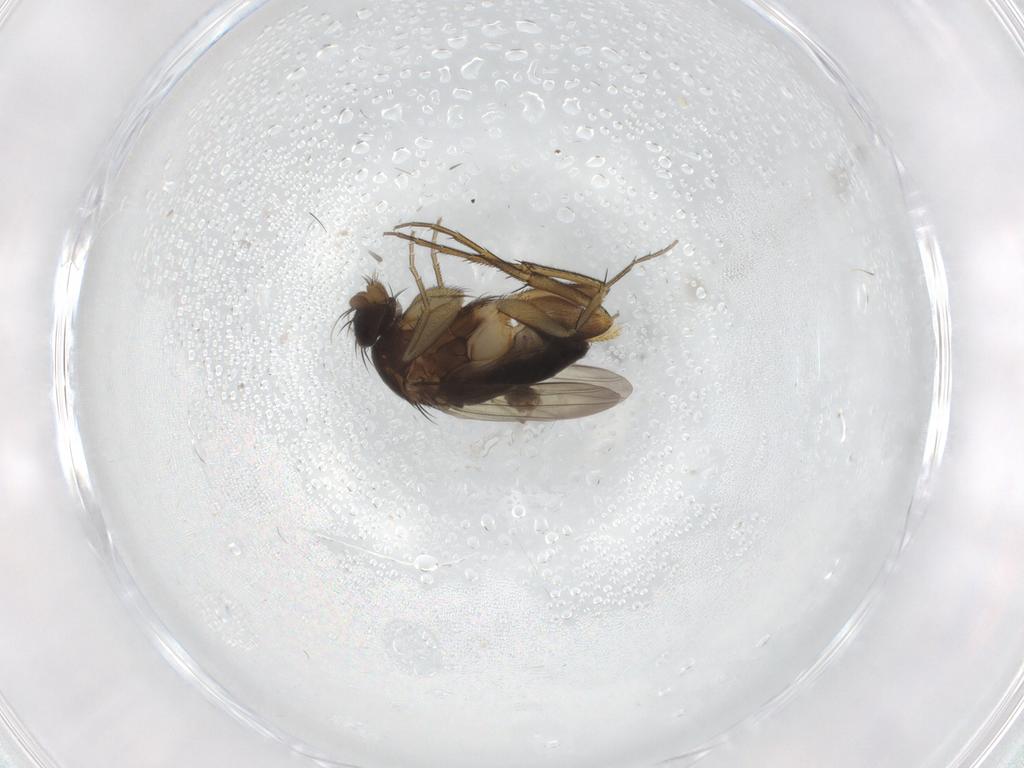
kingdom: Animalia
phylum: Arthropoda
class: Insecta
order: Diptera
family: Phoridae
